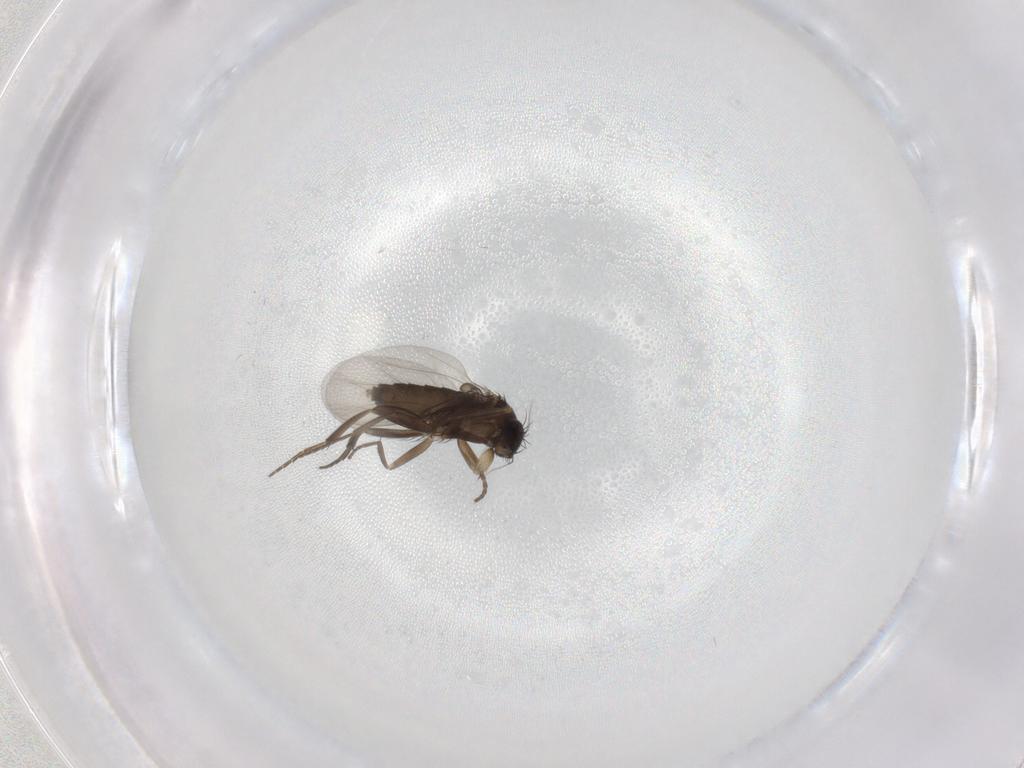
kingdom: Animalia
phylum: Arthropoda
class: Insecta
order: Diptera
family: Phoridae
